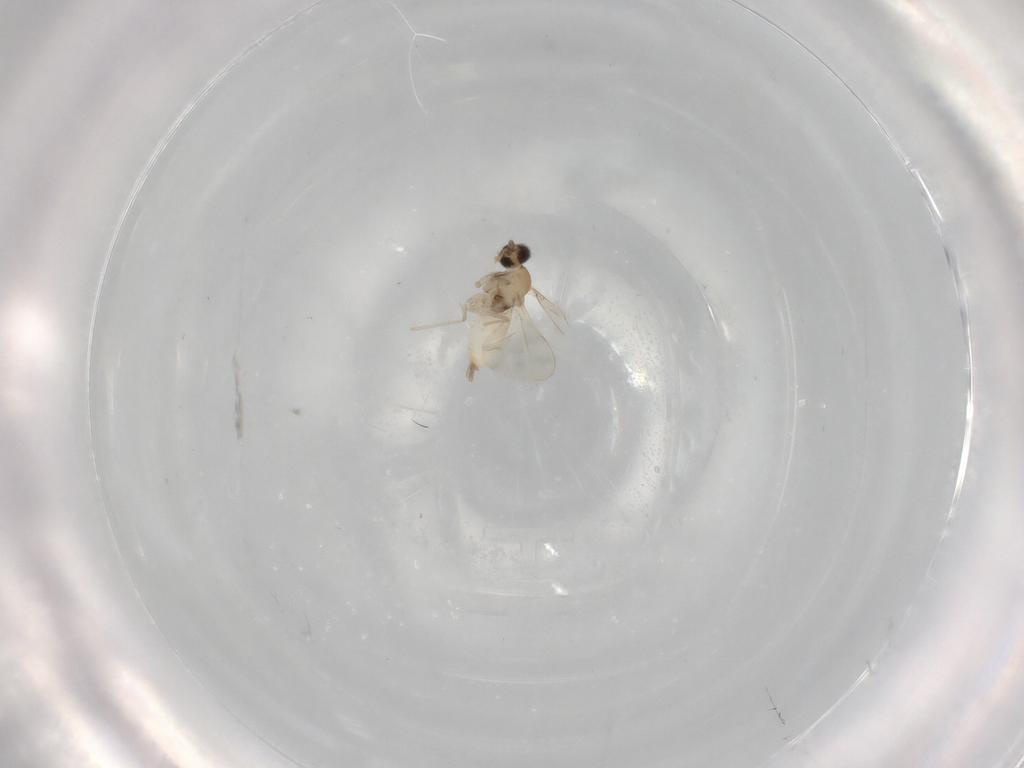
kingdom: Animalia
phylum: Arthropoda
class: Insecta
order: Diptera
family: Cecidomyiidae
